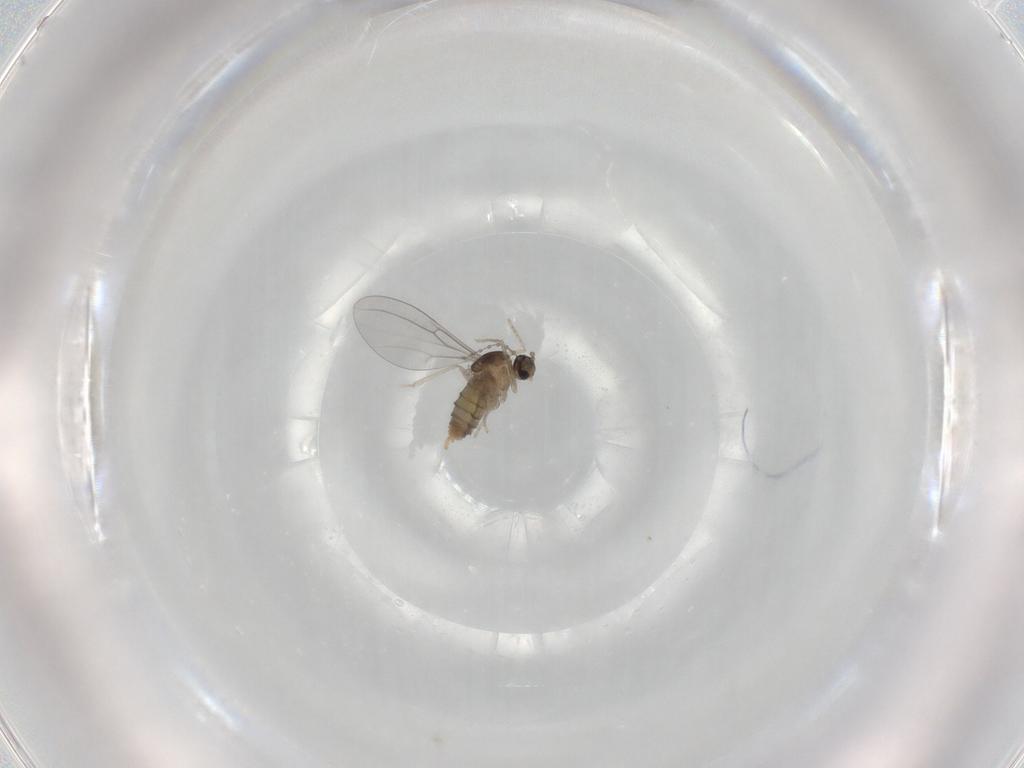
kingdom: Animalia
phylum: Arthropoda
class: Insecta
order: Diptera
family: Cecidomyiidae
